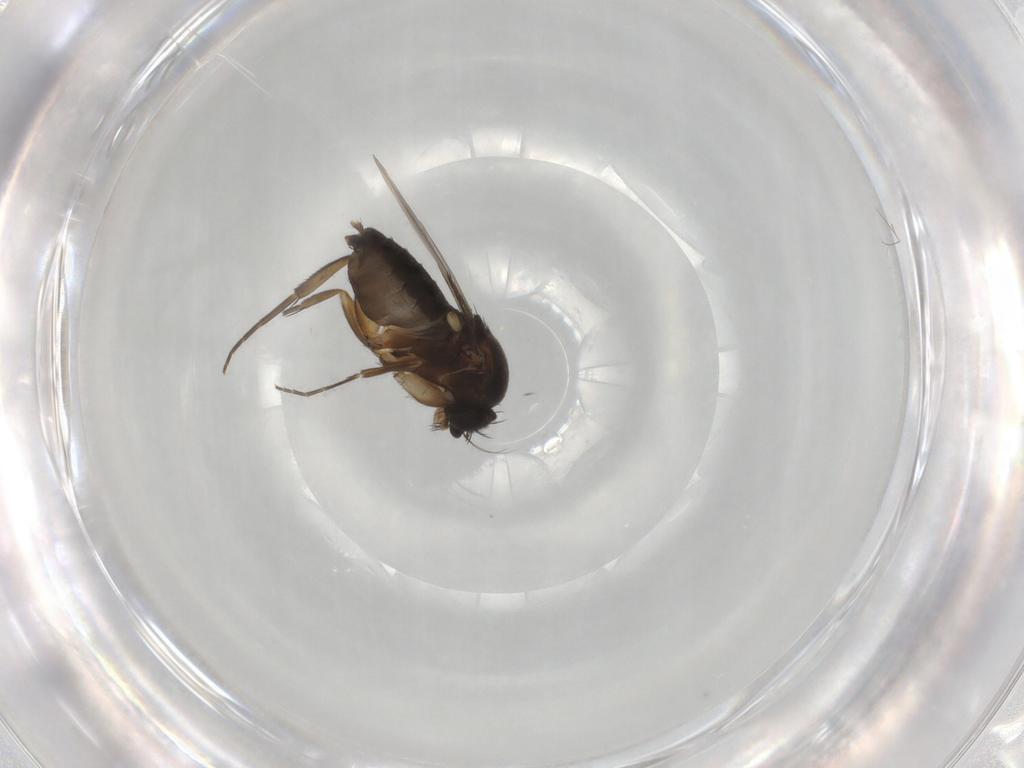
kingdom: Animalia
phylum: Arthropoda
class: Insecta
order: Diptera
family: Phoridae
